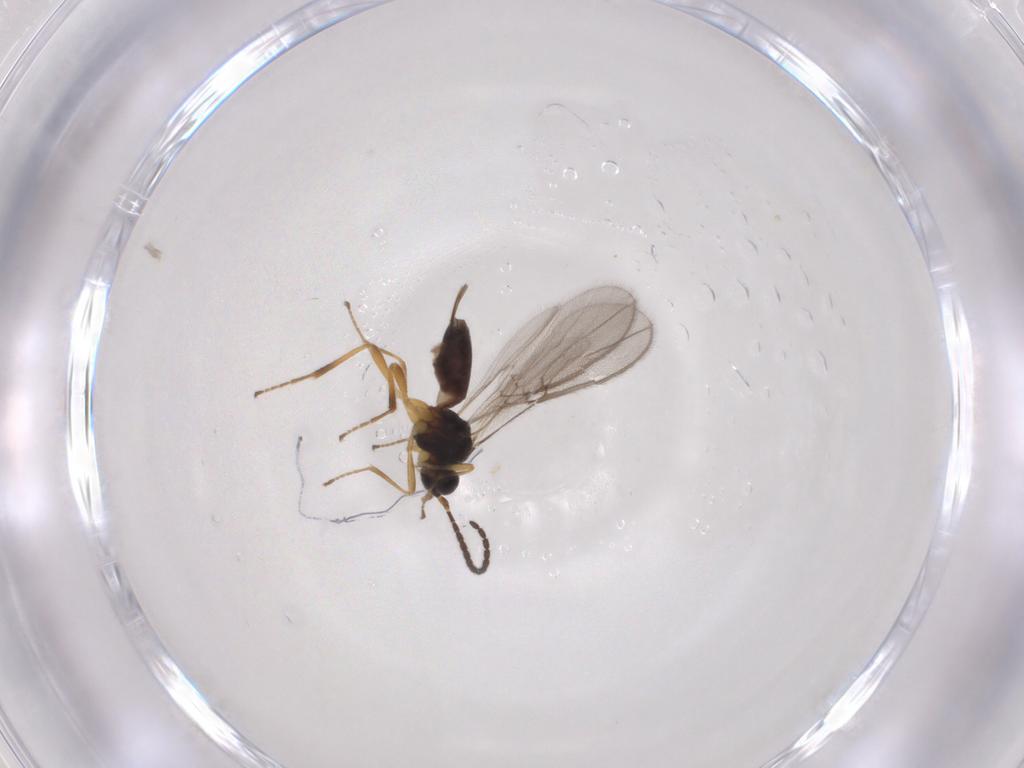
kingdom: Animalia
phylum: Arthropoda
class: Insecta
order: Hymenoptera
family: Braconidae
